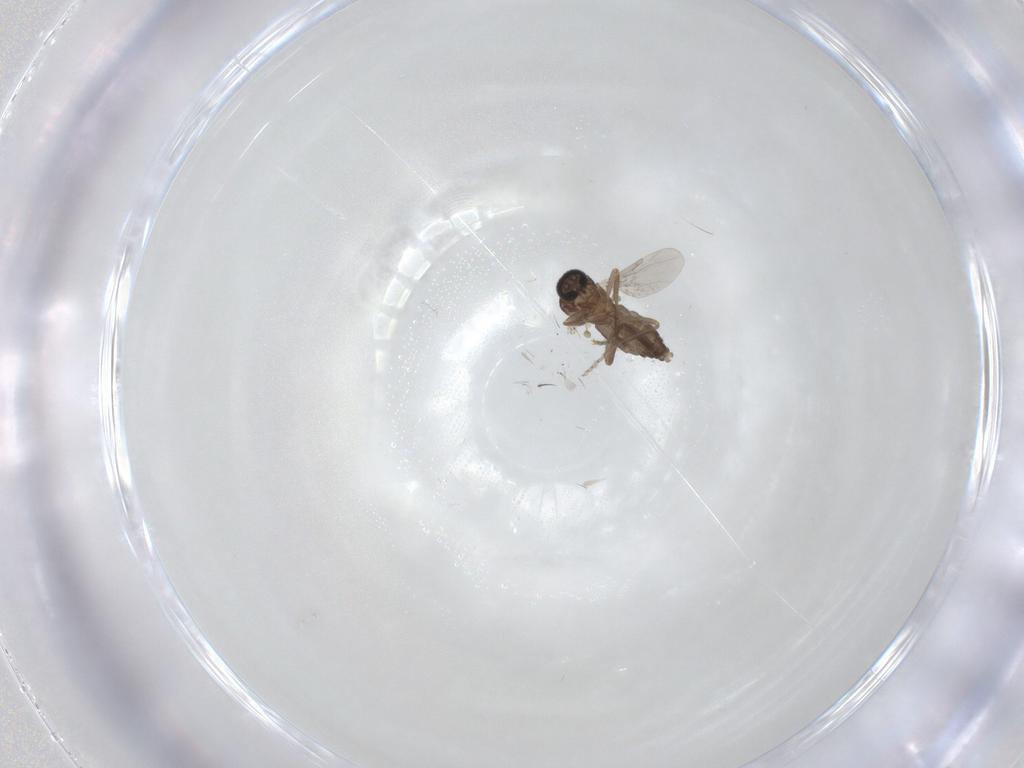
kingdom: Animalia
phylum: Arthropoda
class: Insecta
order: Diptera
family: Ceratopogonidae
